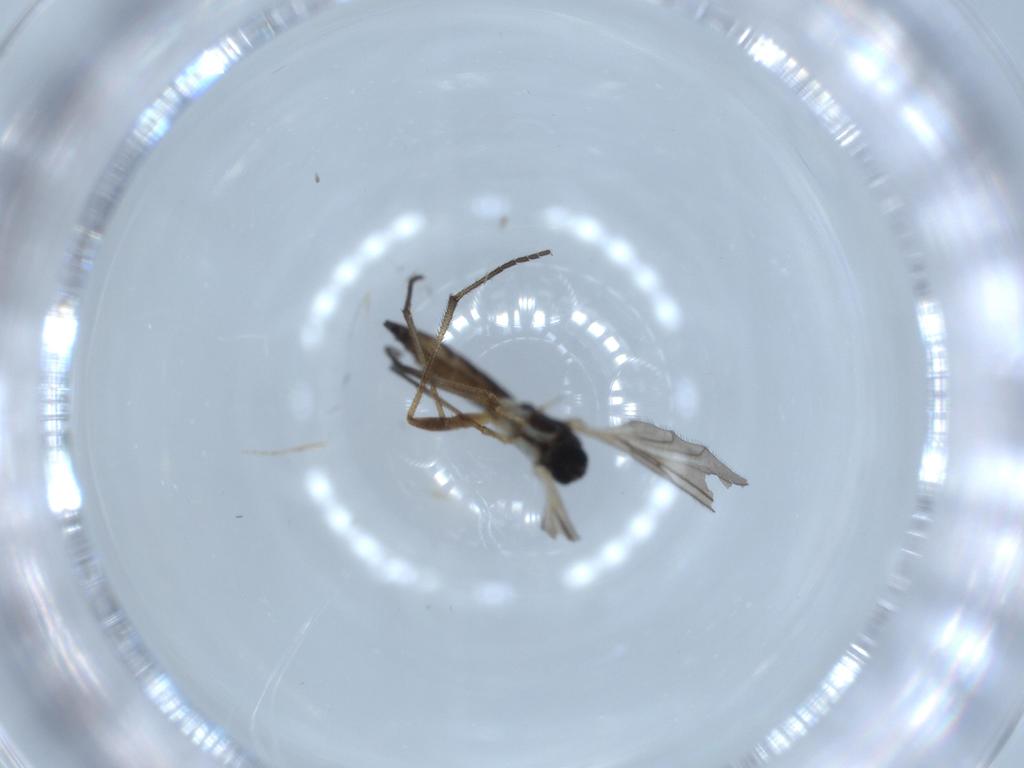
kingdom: Animalia
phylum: Arthropoda
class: Insecta
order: Diptera
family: Sciaridae
